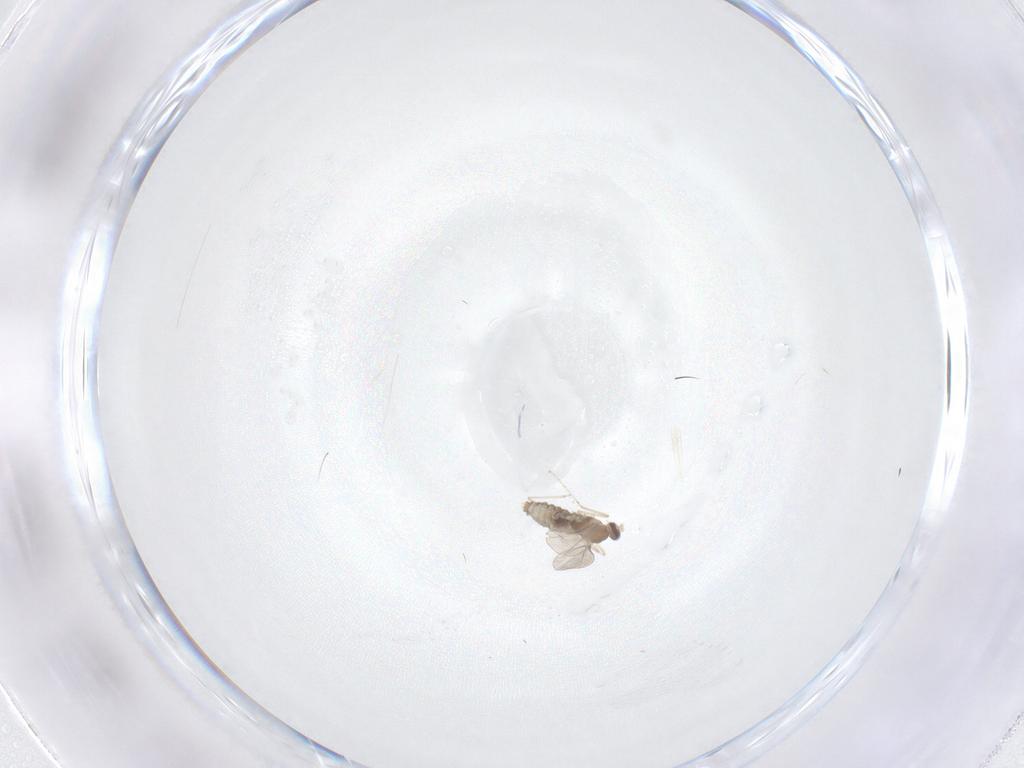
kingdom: Animalia
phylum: Arthropoda
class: Insecta
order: Diptera
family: Cecidomyiidae
